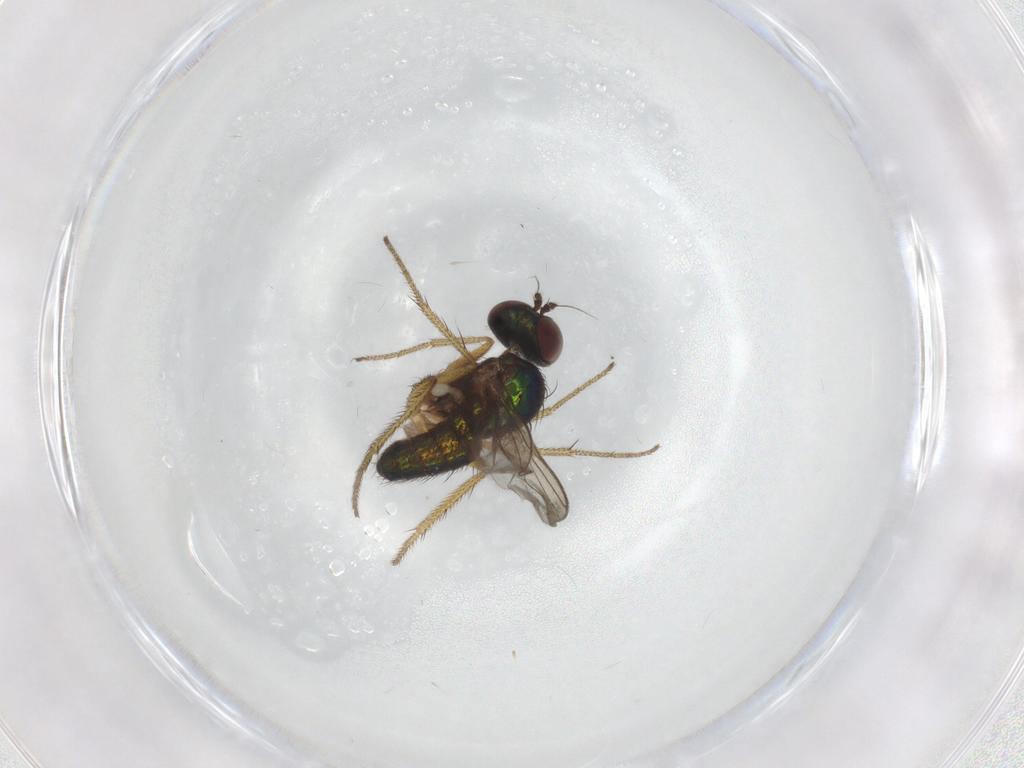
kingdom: Animalia
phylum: Arthropoda
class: Insecta
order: Diptera
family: Dolichopodidae
